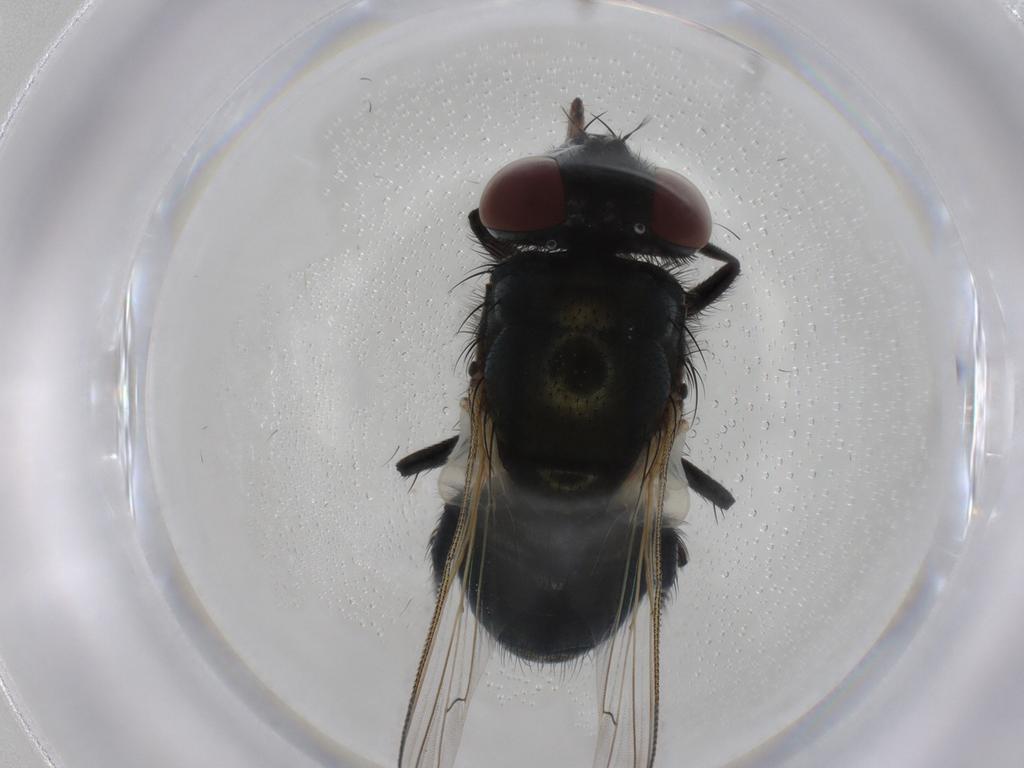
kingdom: Animalia
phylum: Arthropoda
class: Insecta
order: Diptera
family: Muscidae
